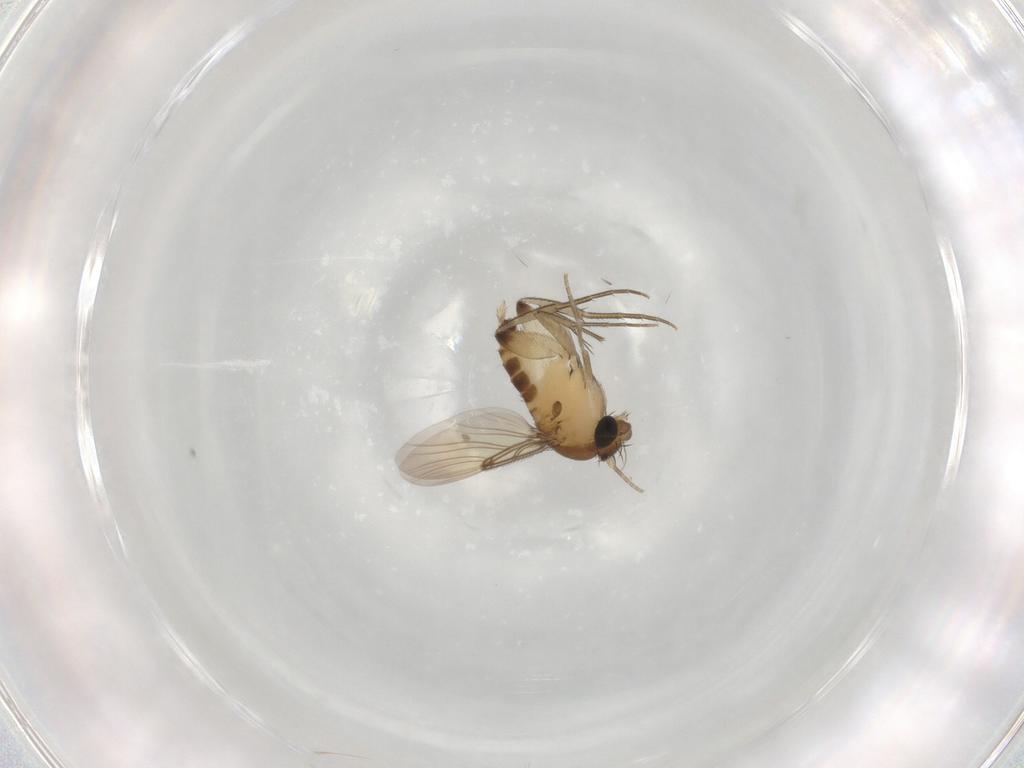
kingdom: Animalia
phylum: Arthropoda
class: Insecta
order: Diptera
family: Phoridae
